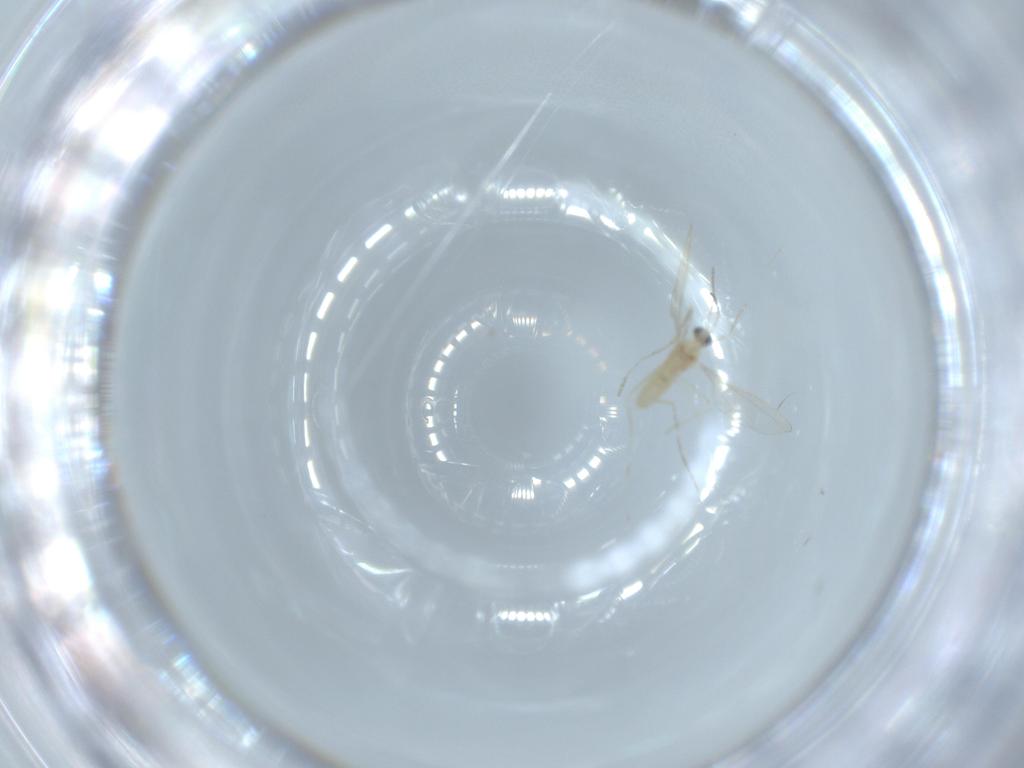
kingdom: Animalia
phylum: Arthropoda
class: Insecta
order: Diptera
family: Cecidomyiidae
